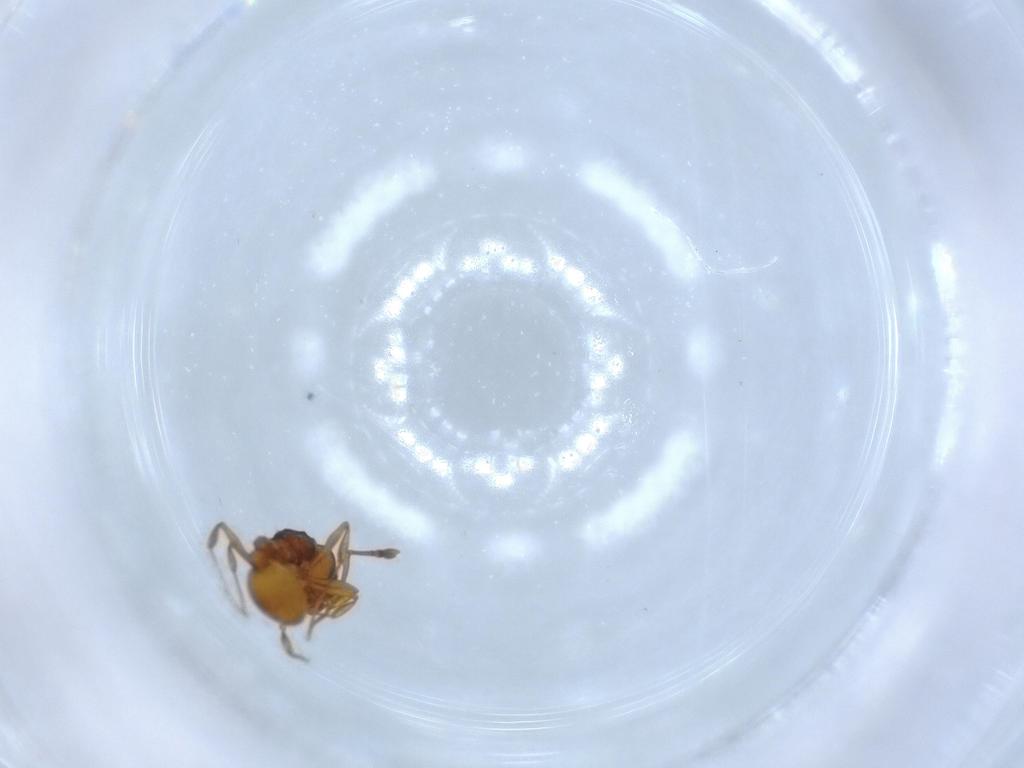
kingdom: Animalia
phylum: Arthropoda
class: Insecta
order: Hymenoptera
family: Formicidae
